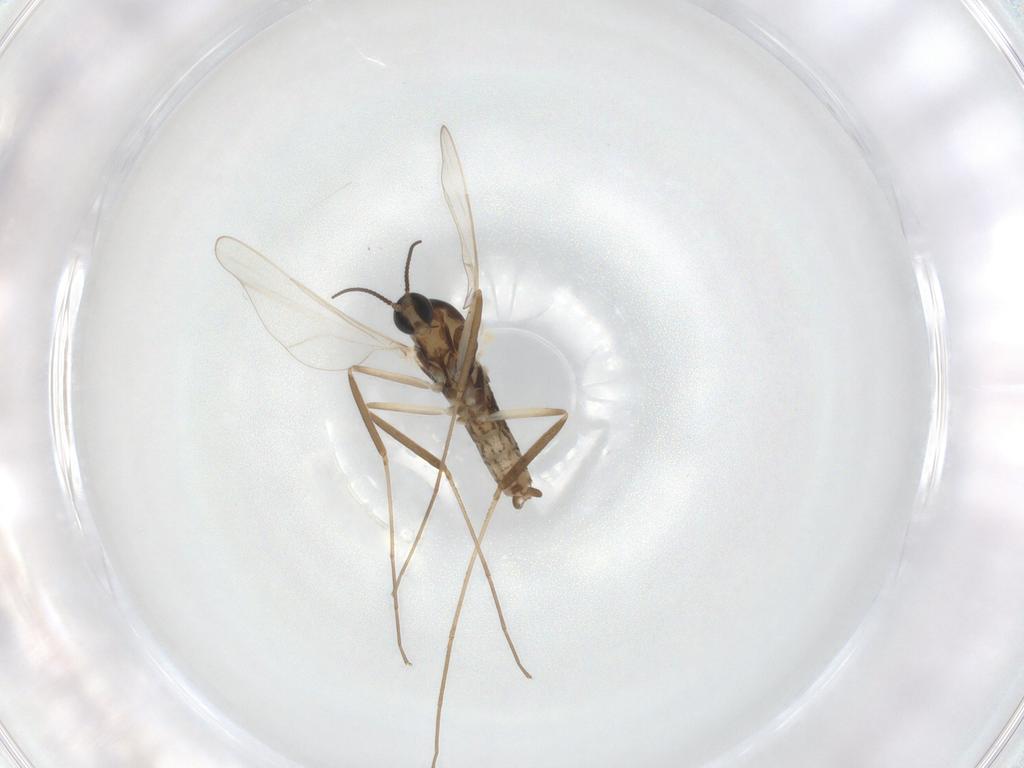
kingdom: Animalia
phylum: Arthropoda
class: Insecta
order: Diptera
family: Cecidomyiidae
